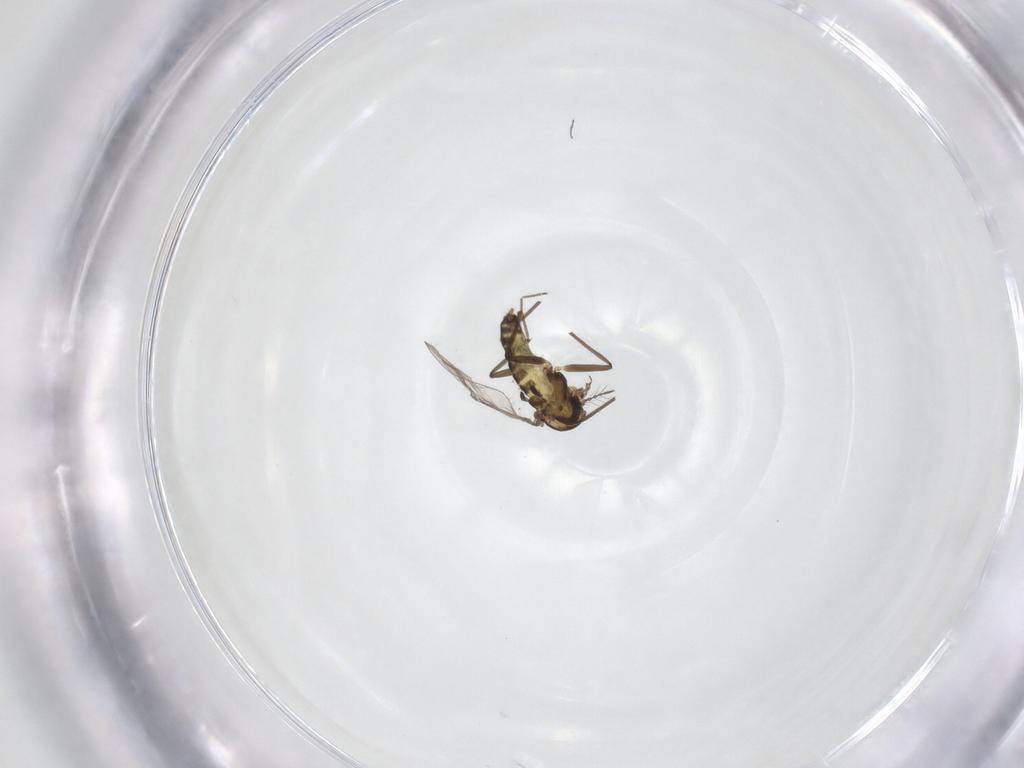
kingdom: Animalia
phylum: Arthropoda
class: Insecta
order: Diptera
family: Chironomidae
